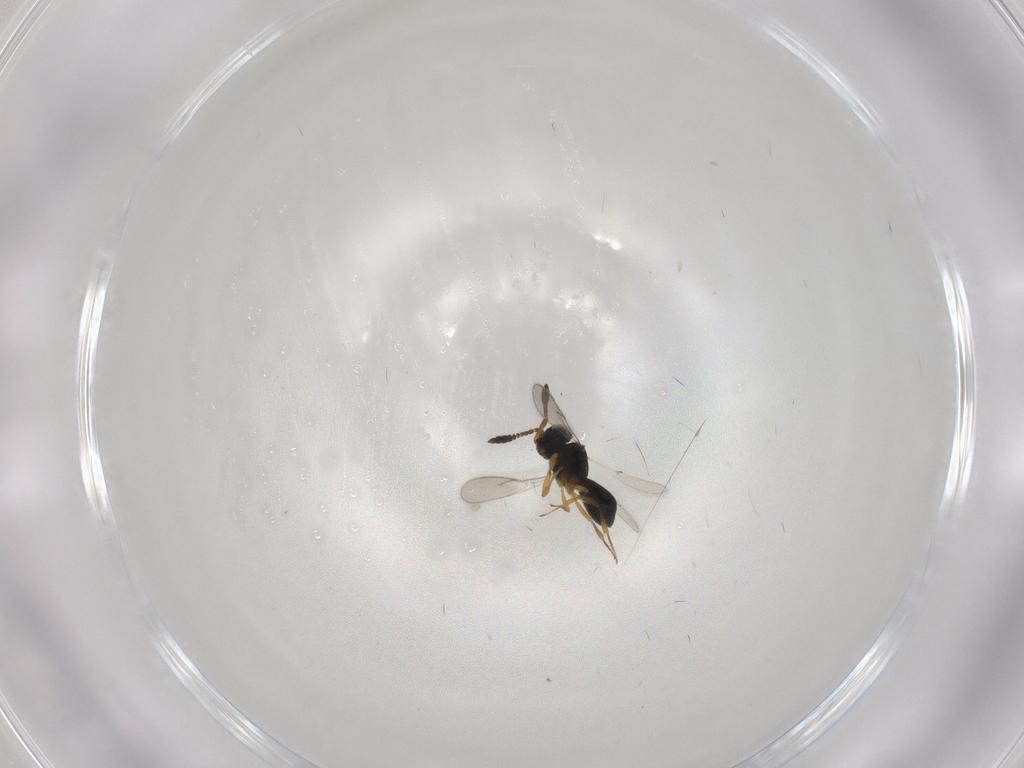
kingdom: Animalia
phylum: Arthropoda
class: Insecta
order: Hymenoptera
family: Scelionidae
